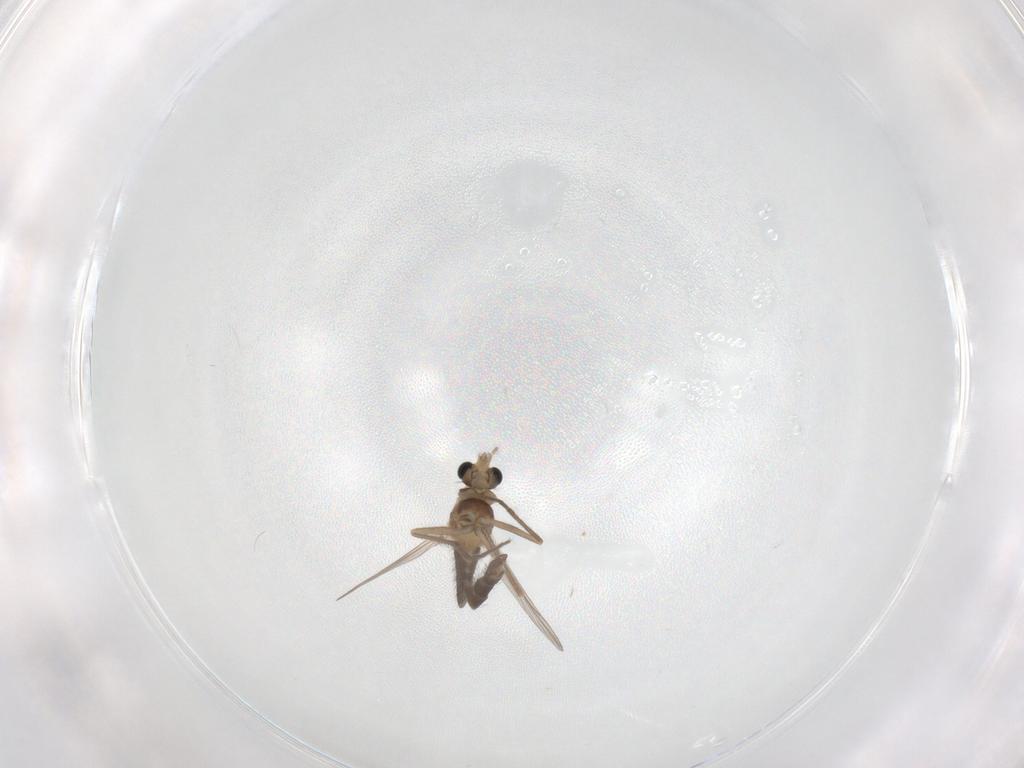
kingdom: Animalia
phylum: Arthropoda
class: Insecta
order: Diptera
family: Chironomidae
